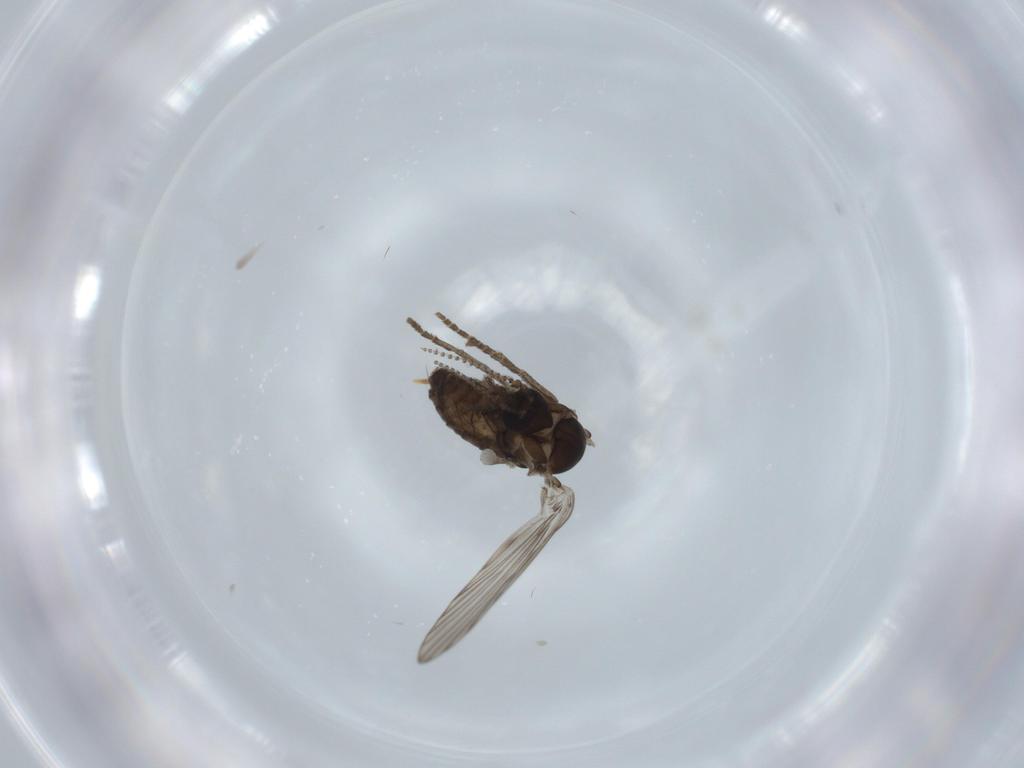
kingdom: Animalia
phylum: Arthropoda
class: Insecta
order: Diptera
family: Psychodidae
